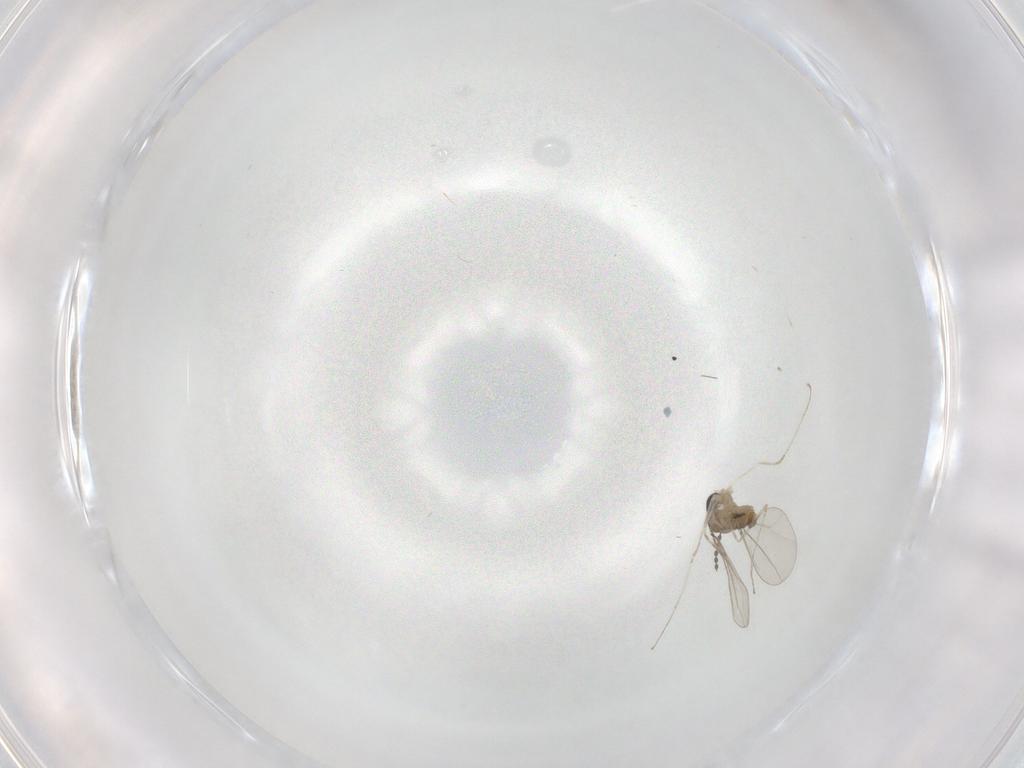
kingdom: Animalia
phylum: Arthropoda
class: Insecta
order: Diptera
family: Cecidomyiidae
